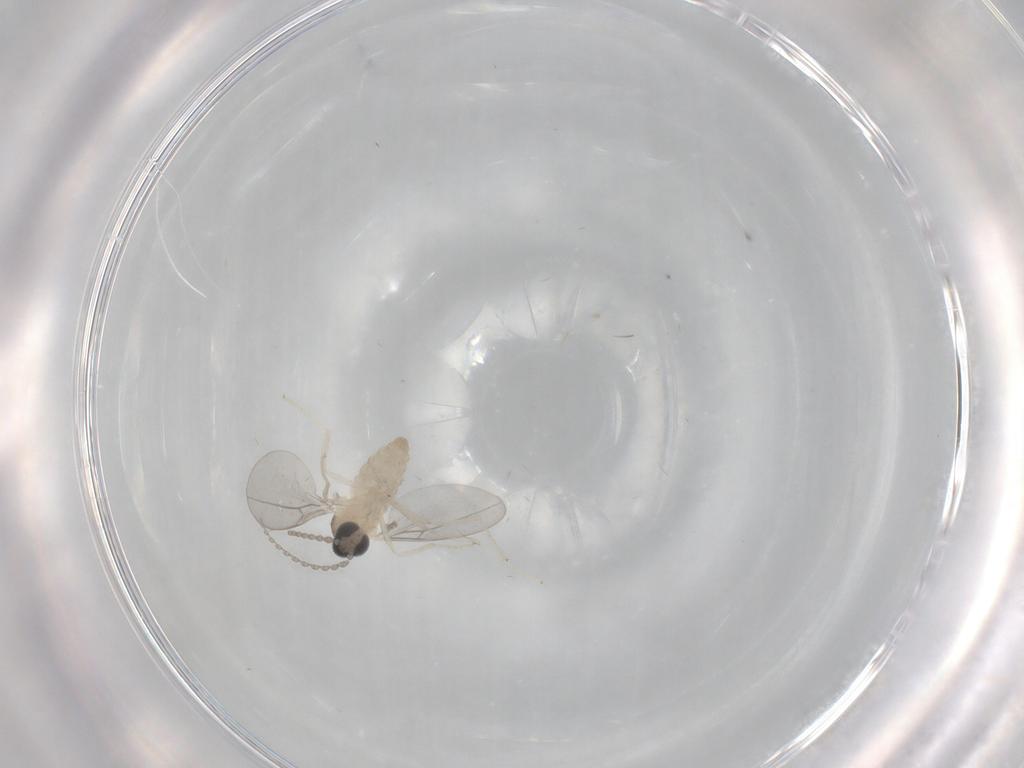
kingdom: Animalia
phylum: Arthropoda
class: Insecta
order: Diptera
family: Cecidomyiidae
